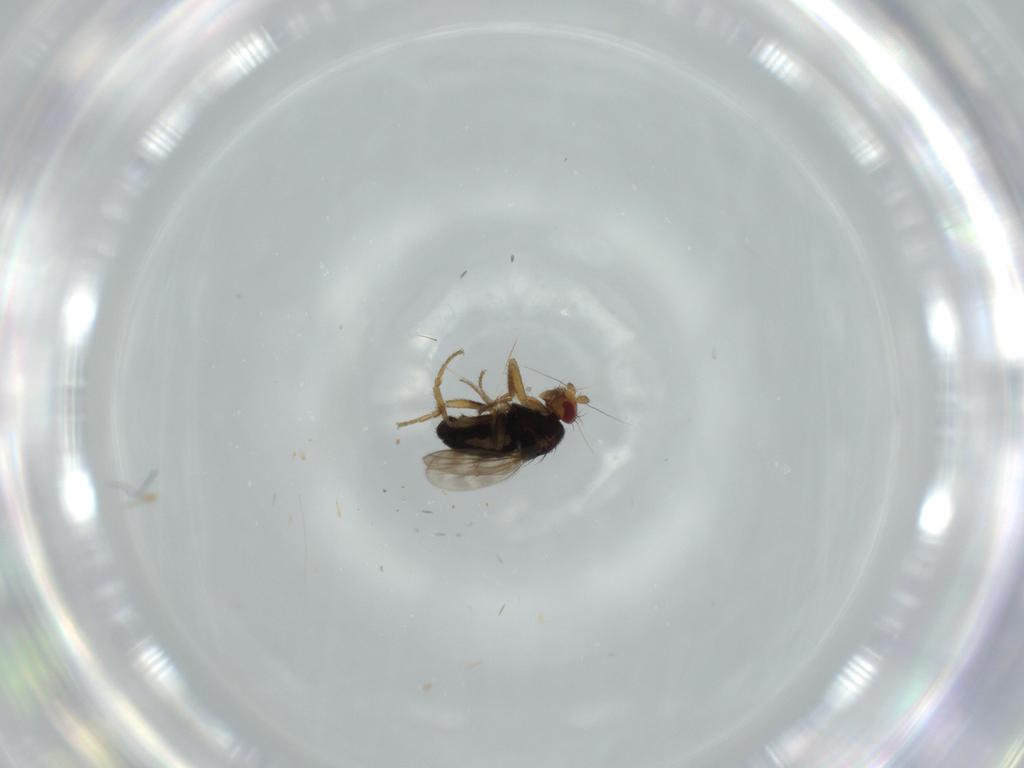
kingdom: Animalia
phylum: Arthropoda
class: Insecta
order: Diptera
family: Sphaeroceridae
